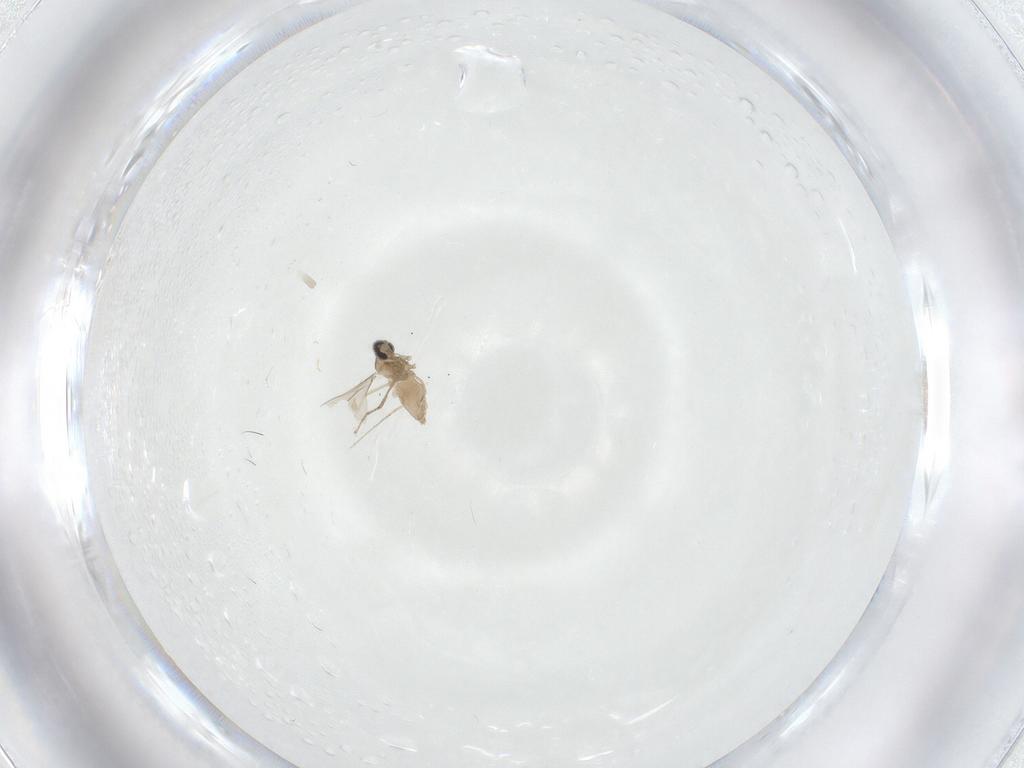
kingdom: Animalia
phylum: Arthropoda
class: Insecta
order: Diptera
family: Cecidomyiidae
